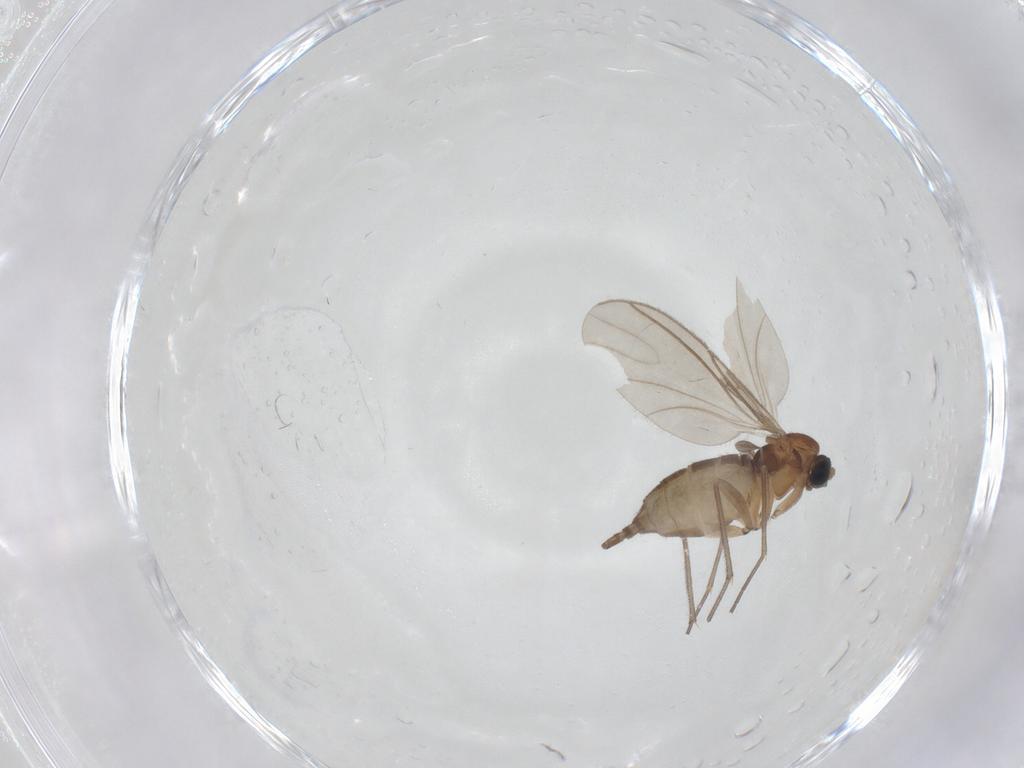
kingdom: Animalia
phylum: Arthropoda
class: Insecta
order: Diptera
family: Sciaridae
